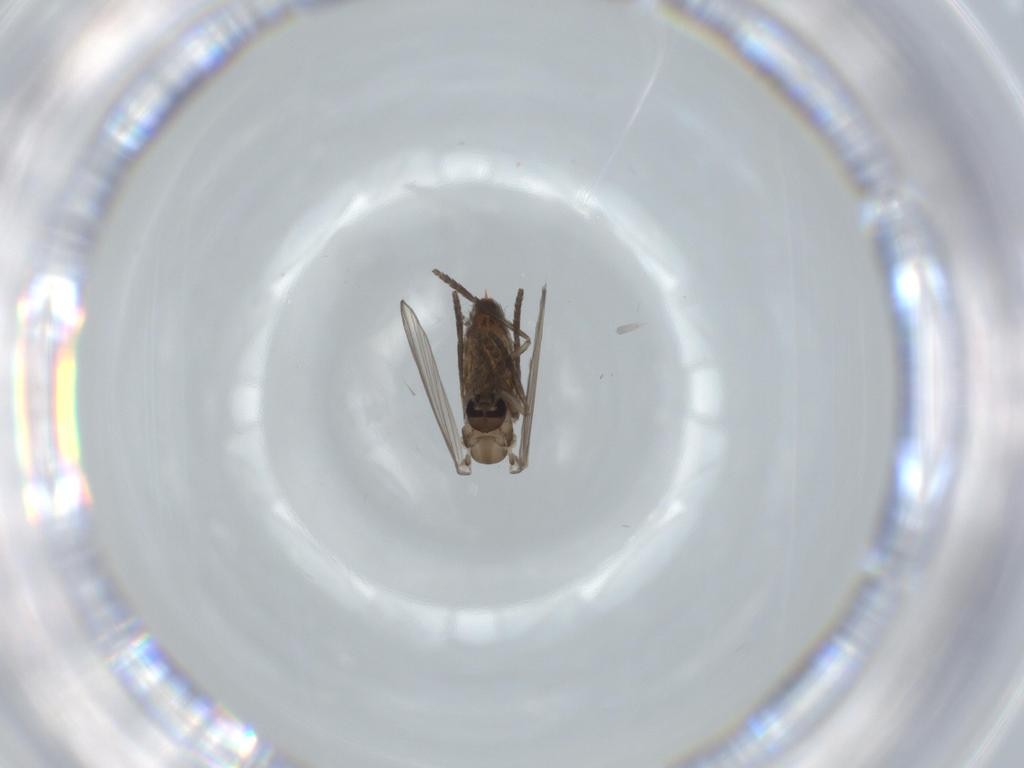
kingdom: Animalia
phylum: Arthropoda
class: Insecta
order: Diptera
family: Psychodidae
